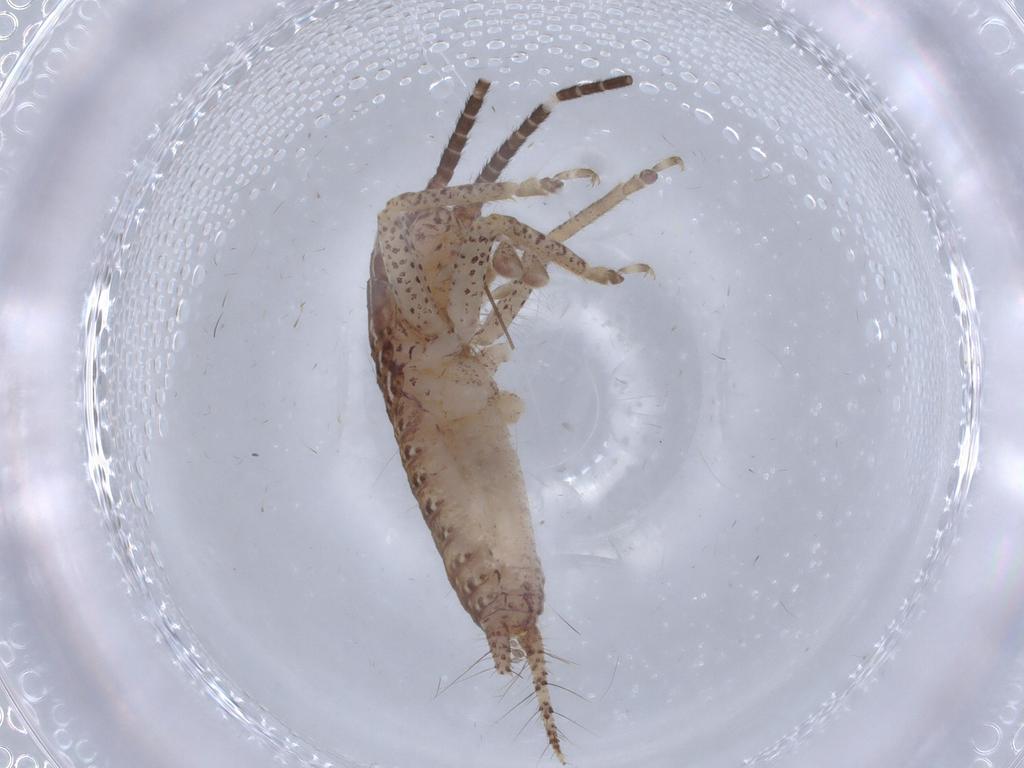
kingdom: Animalia
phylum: Arthropoda
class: Insecta
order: Orthoptera
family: Gryllidae
